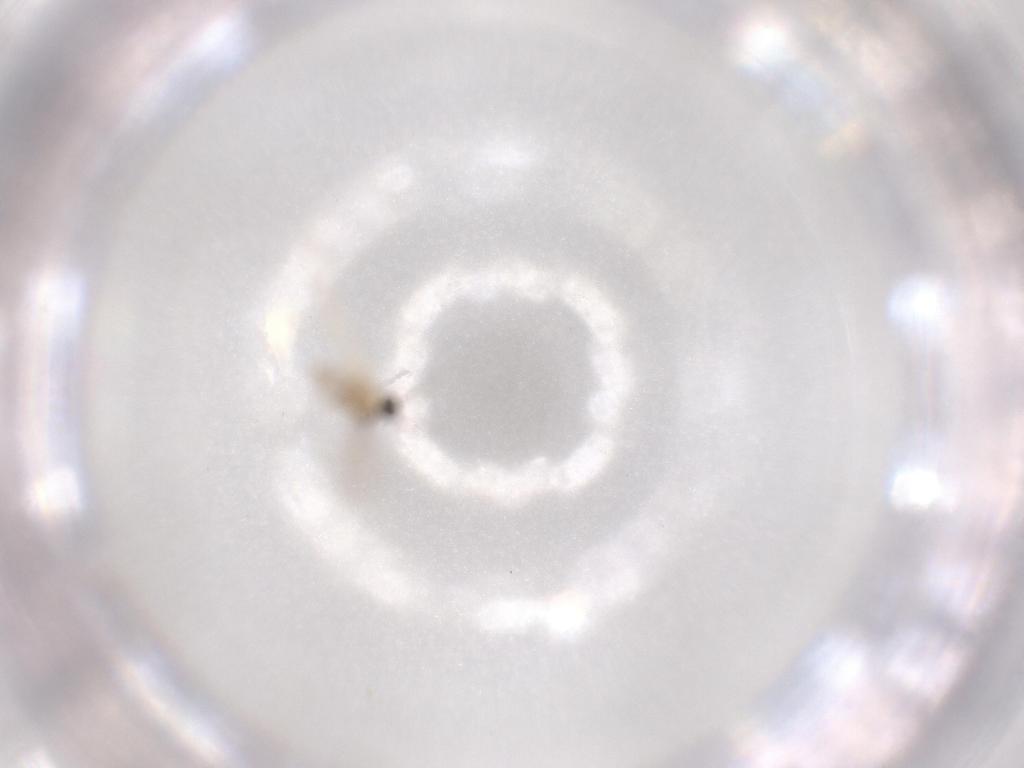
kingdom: Animalia
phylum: Arthropoda
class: Insecta
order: Diptera
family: Cecidomyiidae
